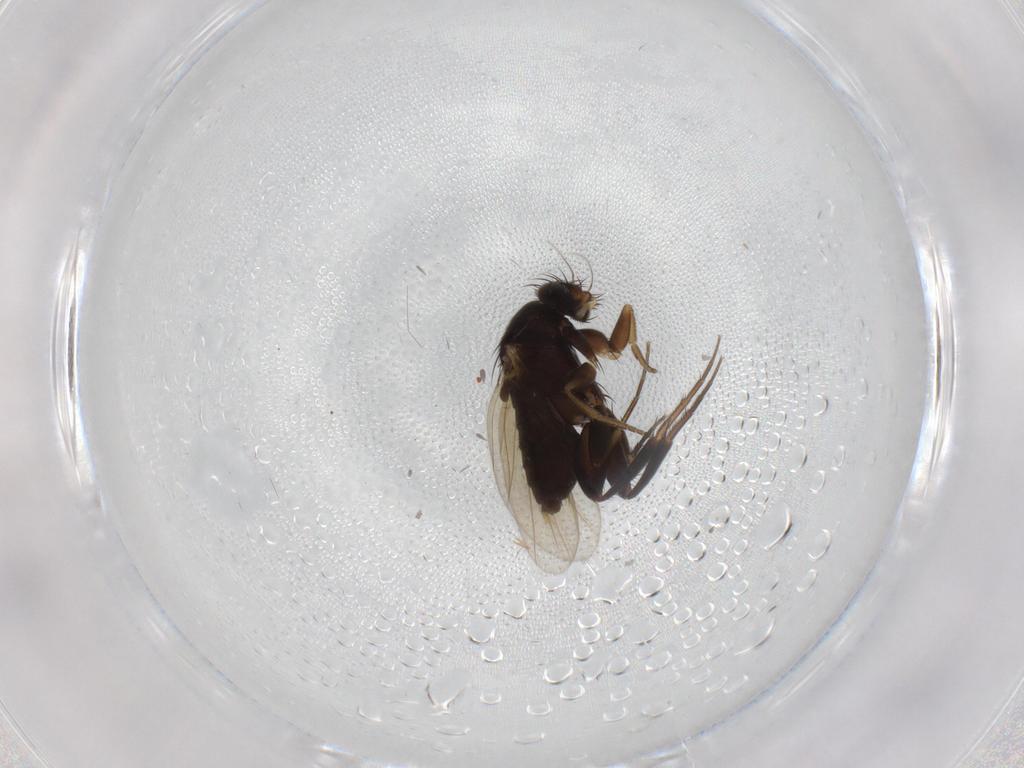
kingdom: Animalia
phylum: Arthropoda
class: Insecta
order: Diptera
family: Phoridae
